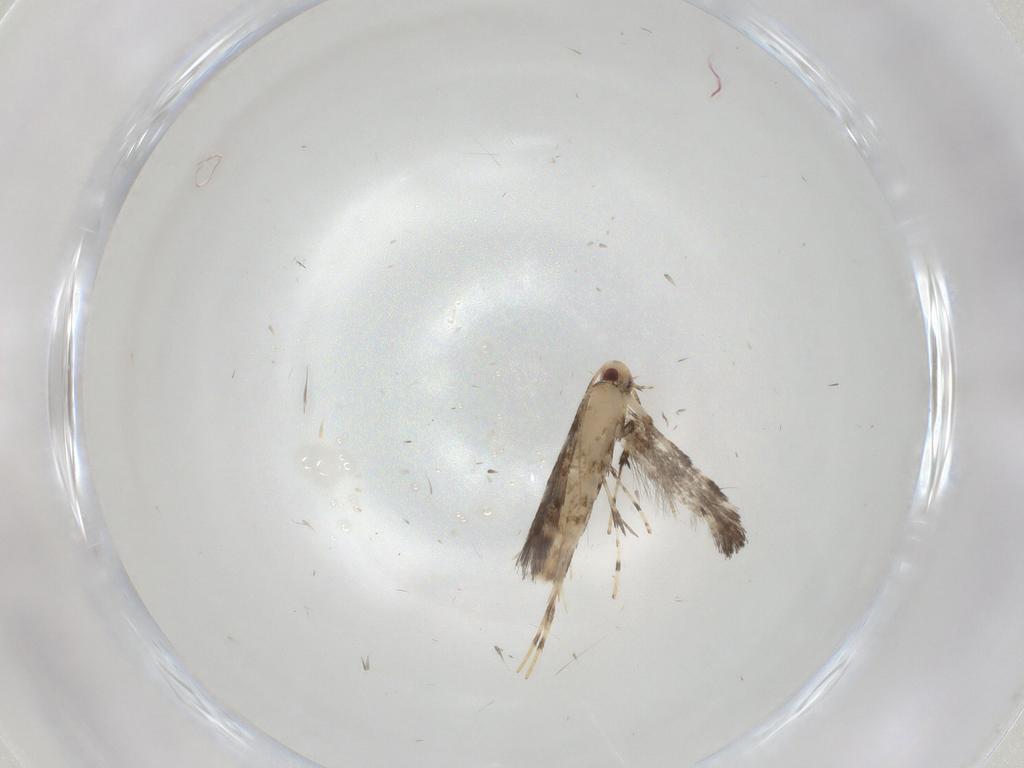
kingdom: Animalia
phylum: Arthropoda
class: Insecta
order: Lepidoptera
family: Gracillariidae
